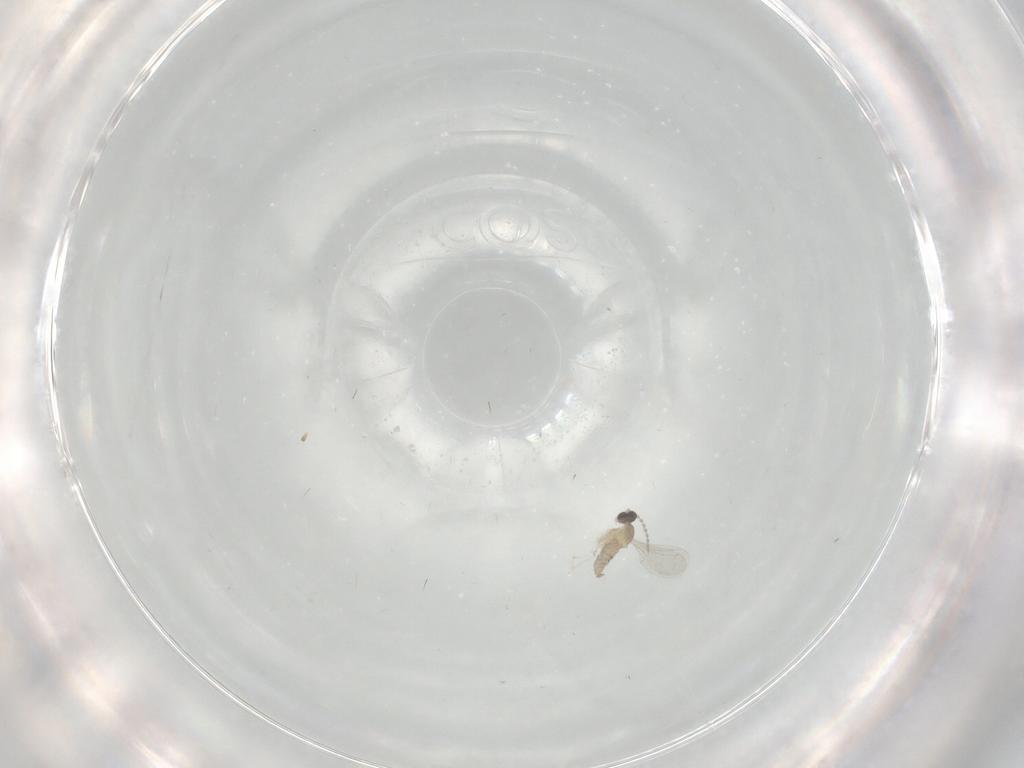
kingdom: Animalia
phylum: Arthropoda
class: Insecta
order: Diptera
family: Cecidomyiidae
